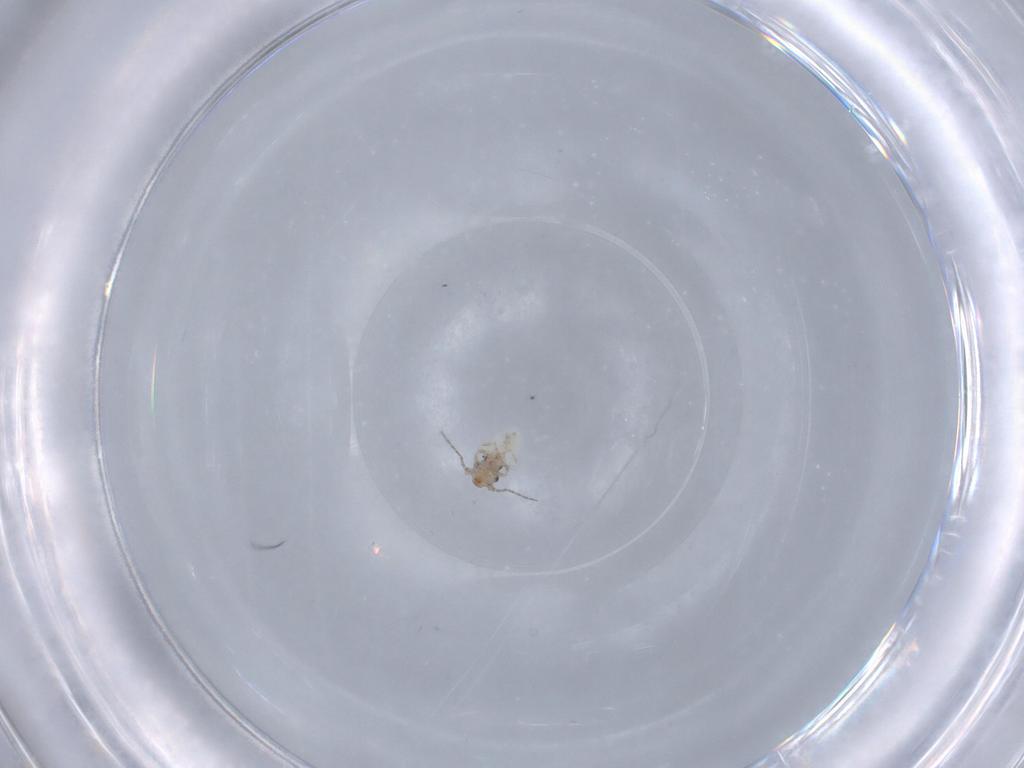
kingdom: Animalia
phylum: Arthropoda
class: Insecta
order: Psocodea
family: Lepidopsocidae
